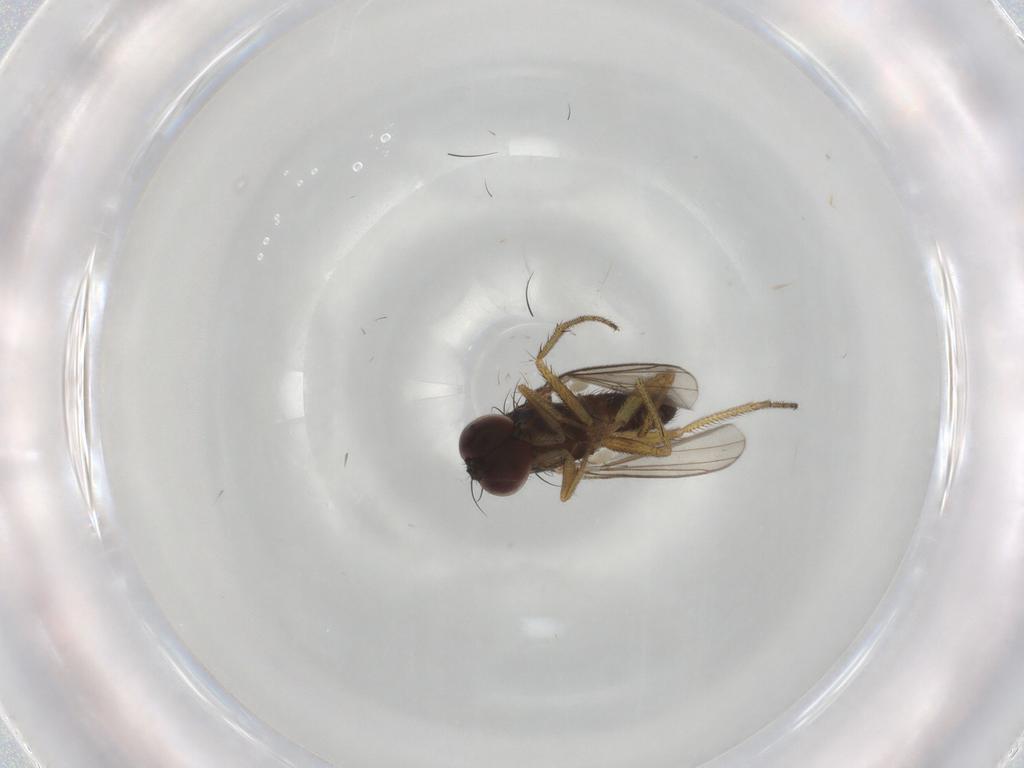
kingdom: Animalia
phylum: Arthropoda
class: Insecta
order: Diptera
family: Dolichopodidae
